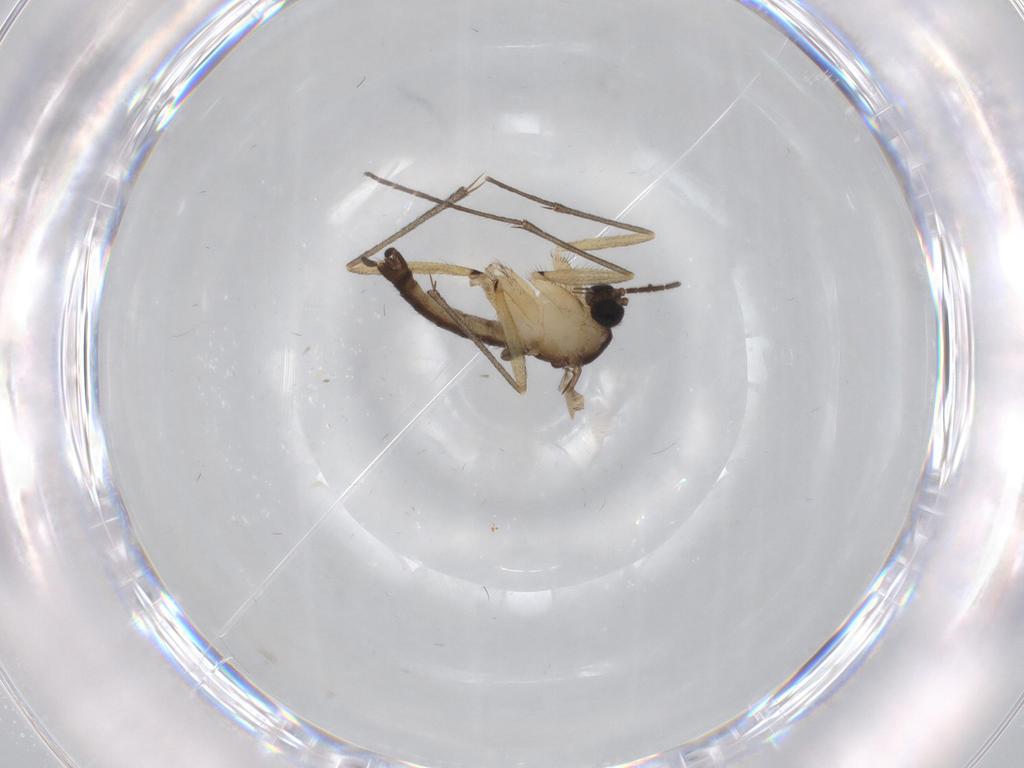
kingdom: Animalia
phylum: Arthropoda
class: Insecta
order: Diptera
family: Sciaridae
